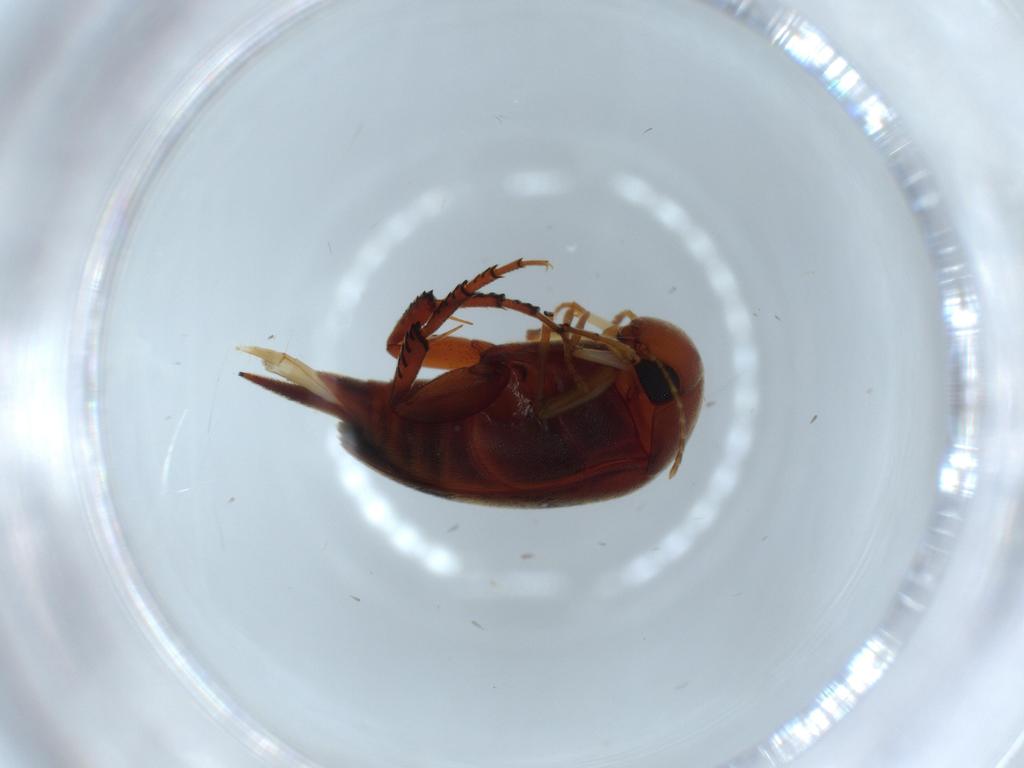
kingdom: Animalia
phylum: Arthropoda
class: Insecta
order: Coleoptera
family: Mordellidae
